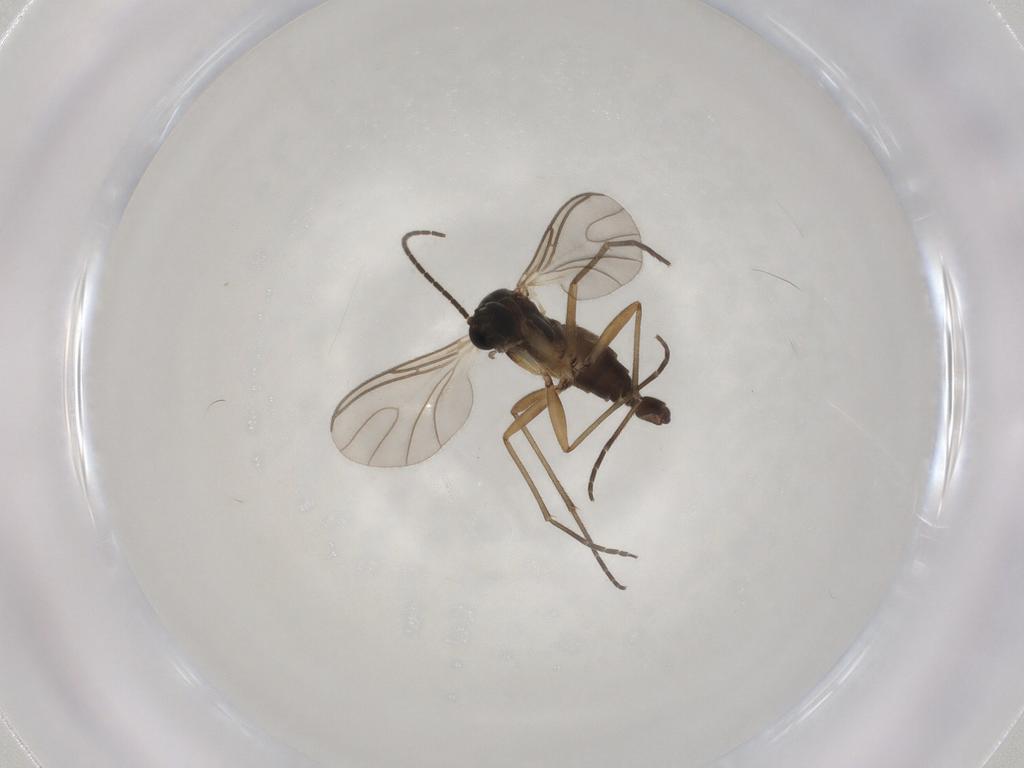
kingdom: Animalia
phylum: Arthropoda
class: Insecta
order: Diptera
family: Sciaridae
